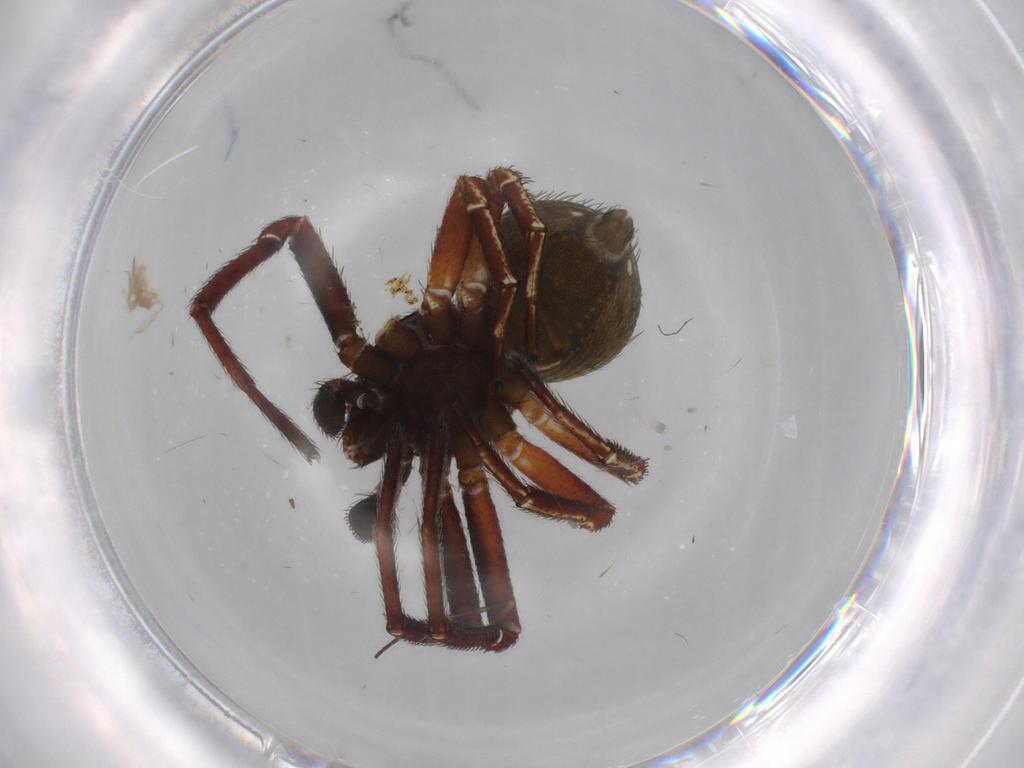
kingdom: Animalia
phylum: Arthropoda
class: Arachnida
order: Araneae
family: Thomisidae
